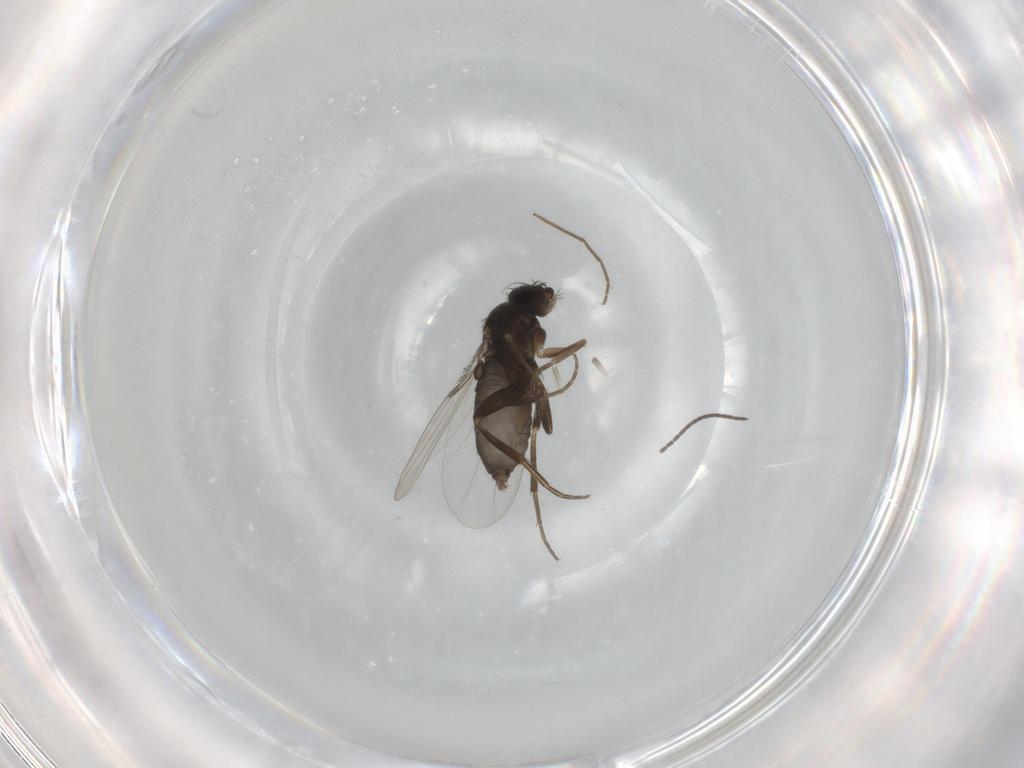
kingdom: Animalia
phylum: Arthropoda
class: Insecta
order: Diptera
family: Phoridae
